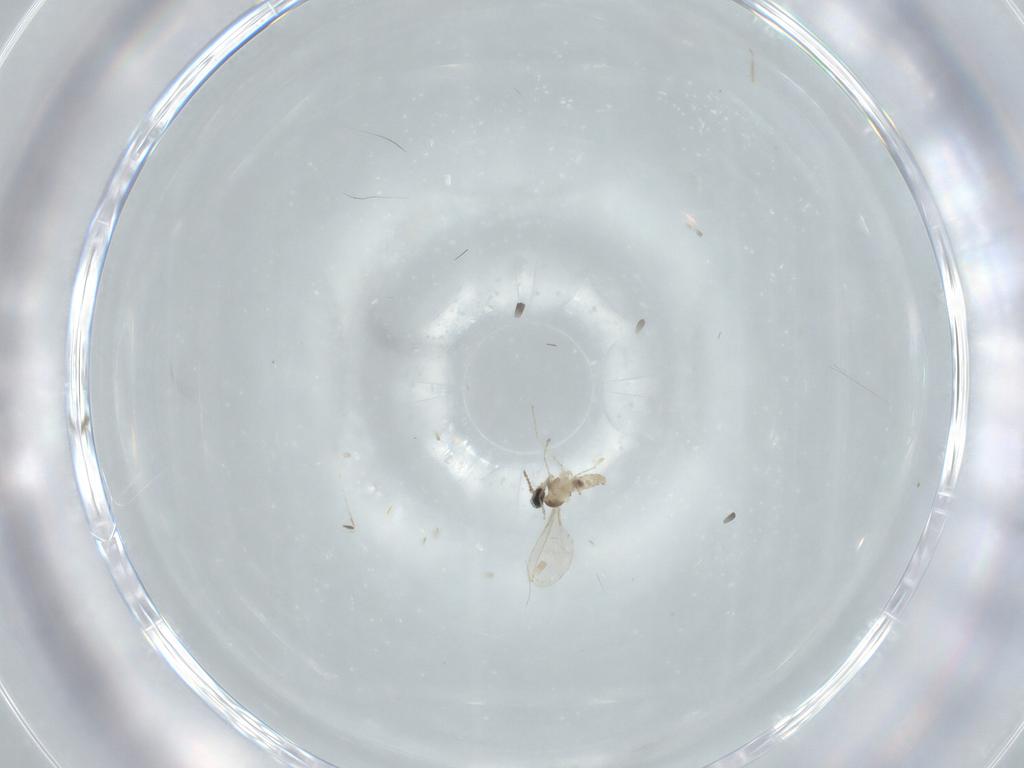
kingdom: Animalia
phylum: Arthropoda
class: Insecta
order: Diptera
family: Cecidomyiidae
